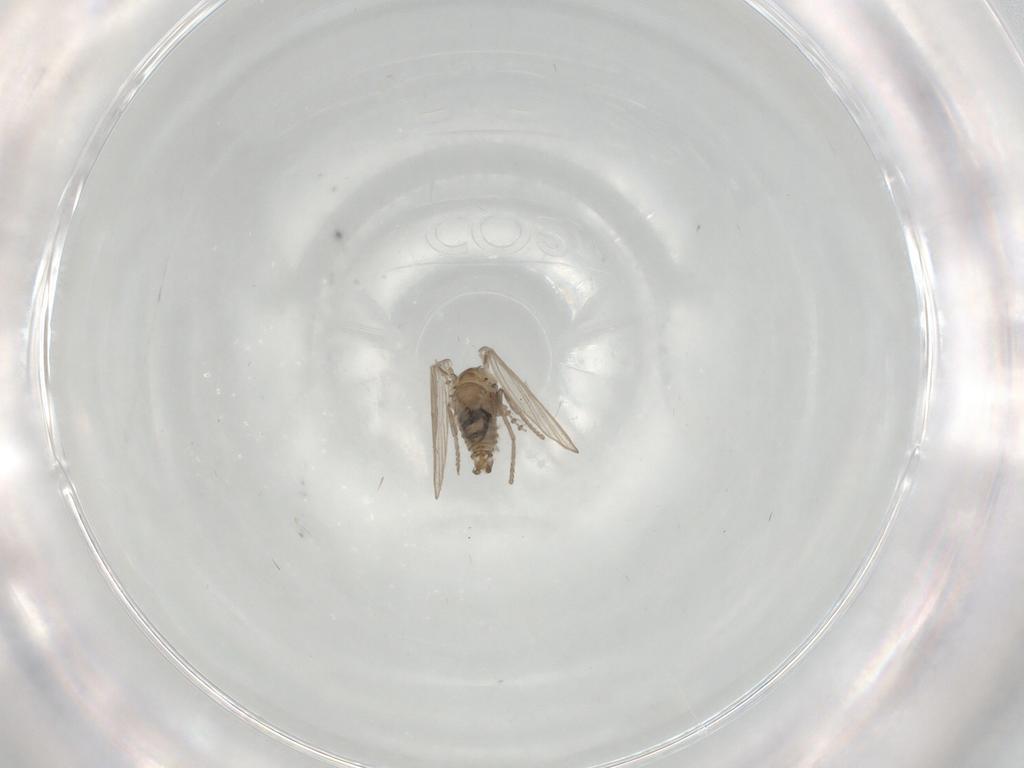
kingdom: Animalia
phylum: Arthropoda
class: Insecta
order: Diptera
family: Psychodidae
